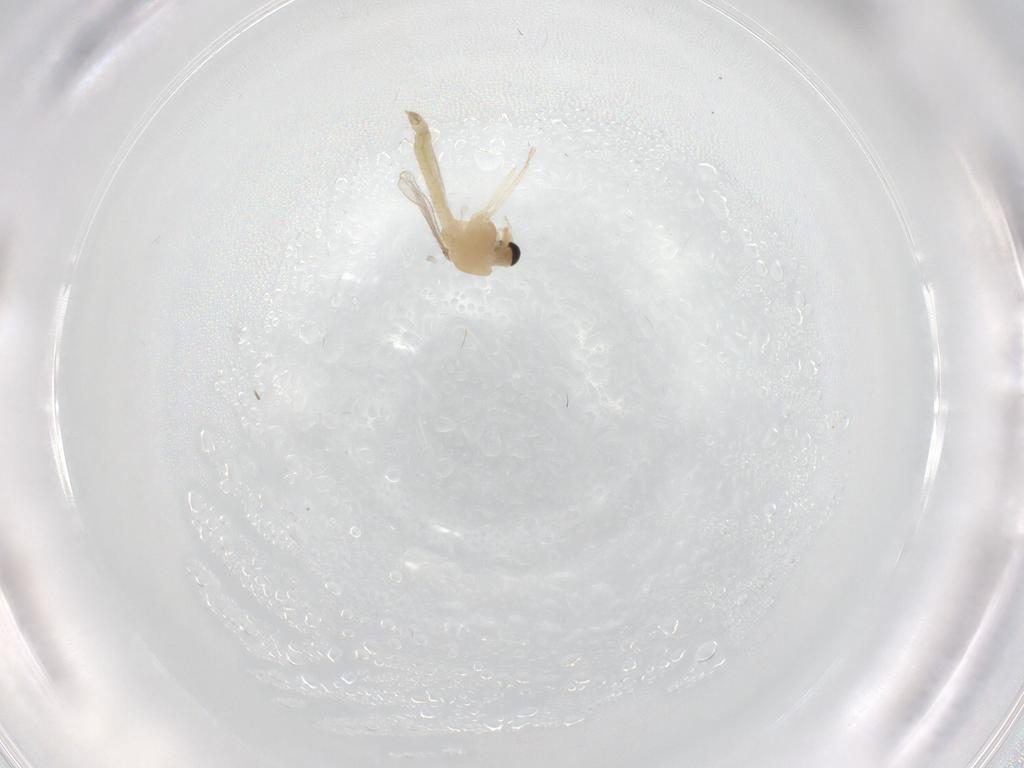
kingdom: Animalia
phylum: Arthropoda
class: Insecta
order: Diptera
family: Chironomidae
